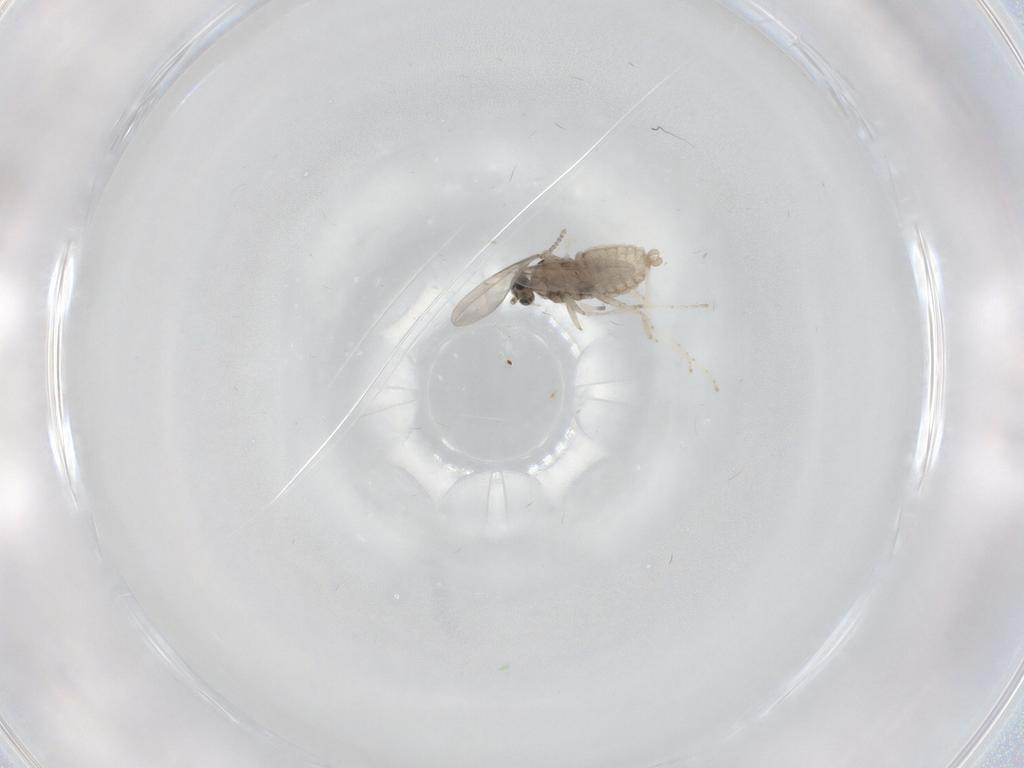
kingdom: Animalia
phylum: Arthropoda
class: Insecta
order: Diptera
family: Cecidomyiidae
